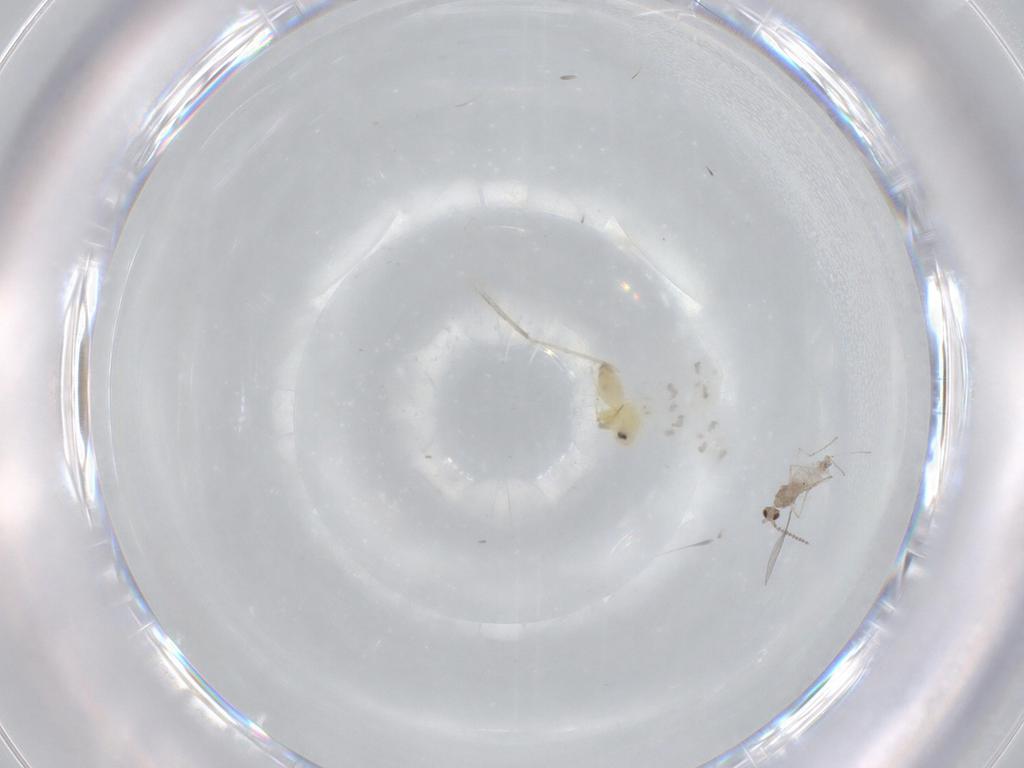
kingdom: Animalia
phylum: Arthropoda
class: Insecta
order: Diptera
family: Cecidomyiidae
